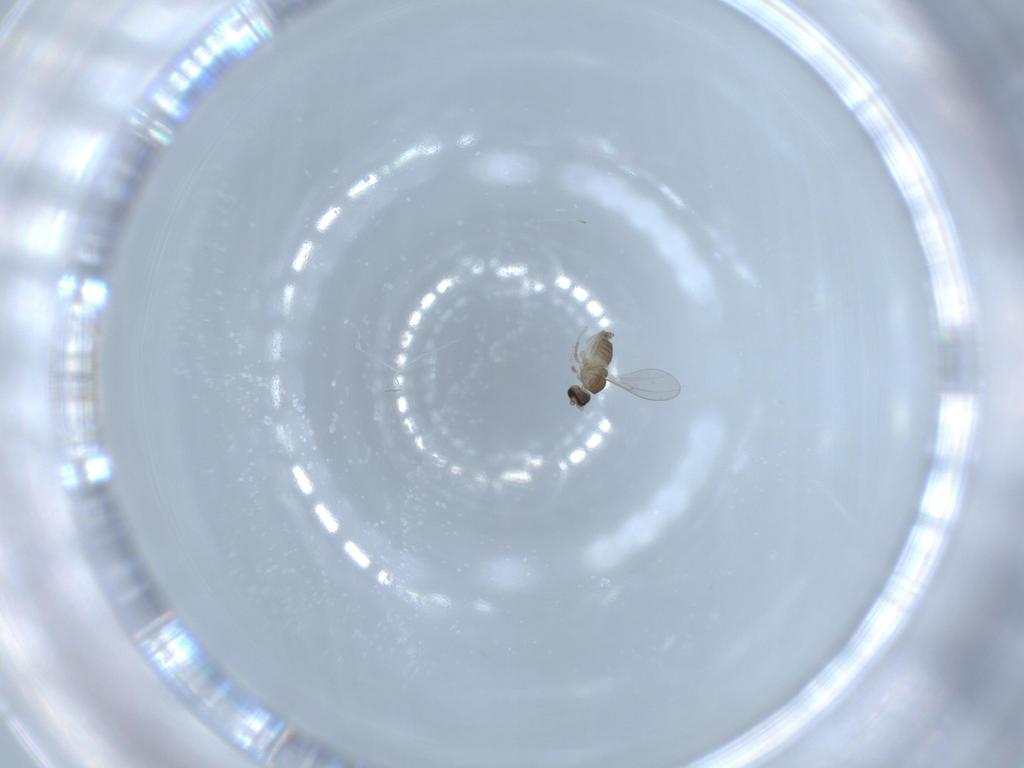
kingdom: Animalia
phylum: Arthropoda
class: Insecta
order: Diptera
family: Cecidomyiidae
